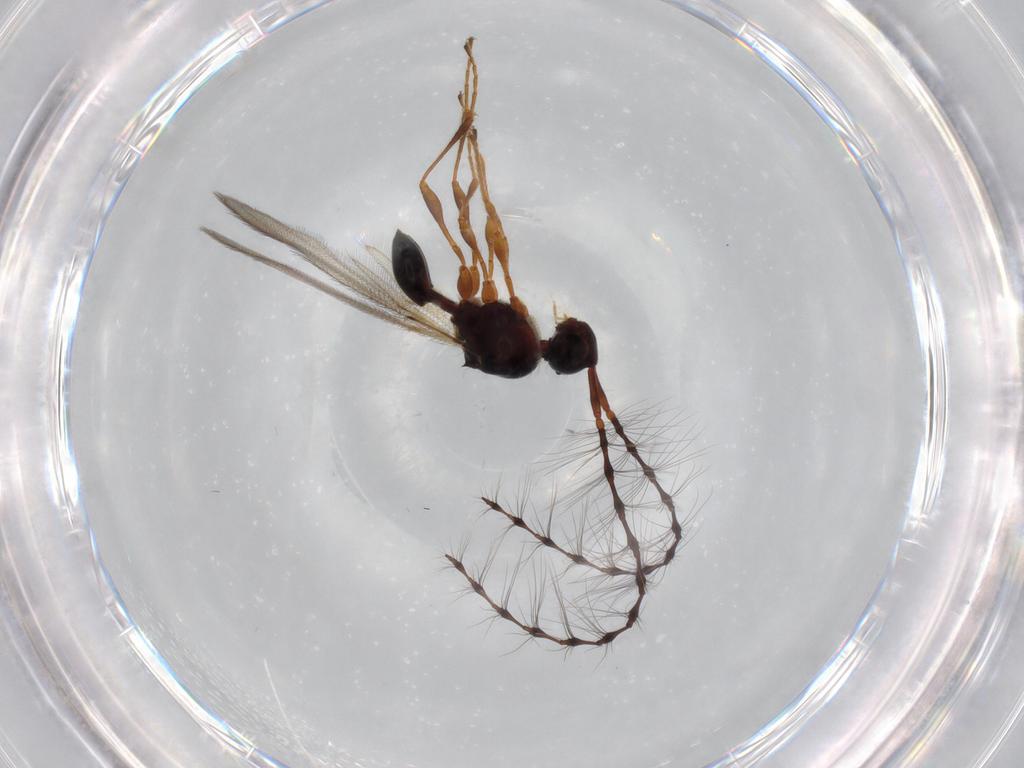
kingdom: Animalia
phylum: Arthropoda
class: Insecta
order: Hymenoptera
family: Diapriidae
